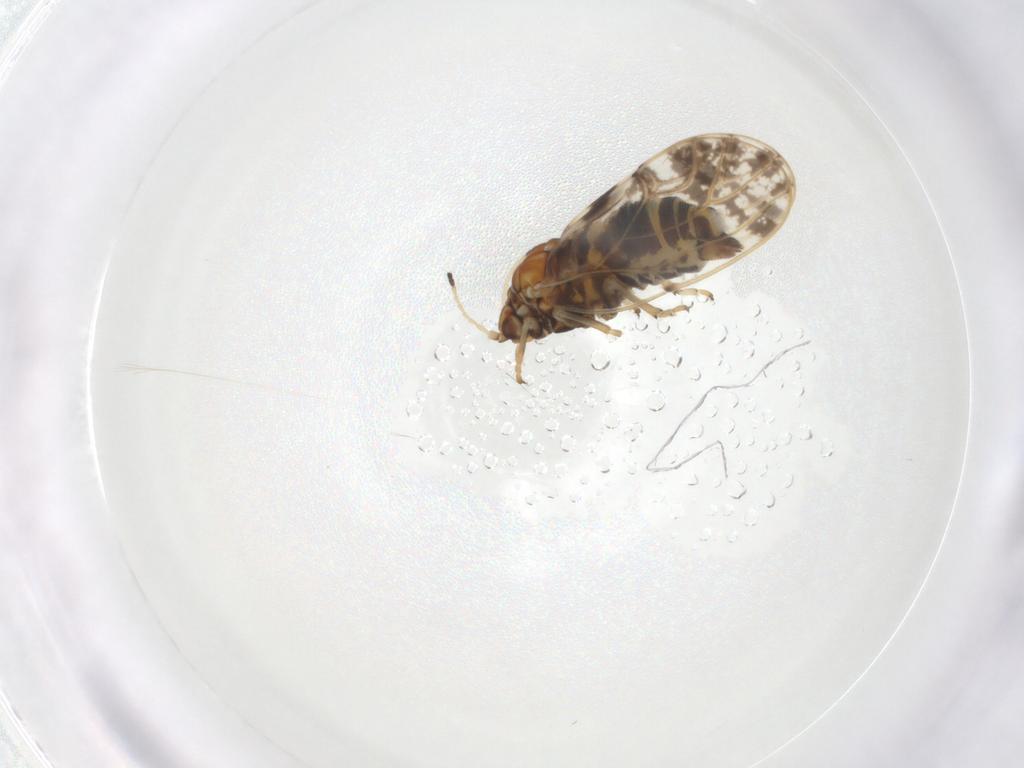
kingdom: Animalia
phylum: Arthropoda
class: Insecta
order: Hemiptera
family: Aphalaridae
